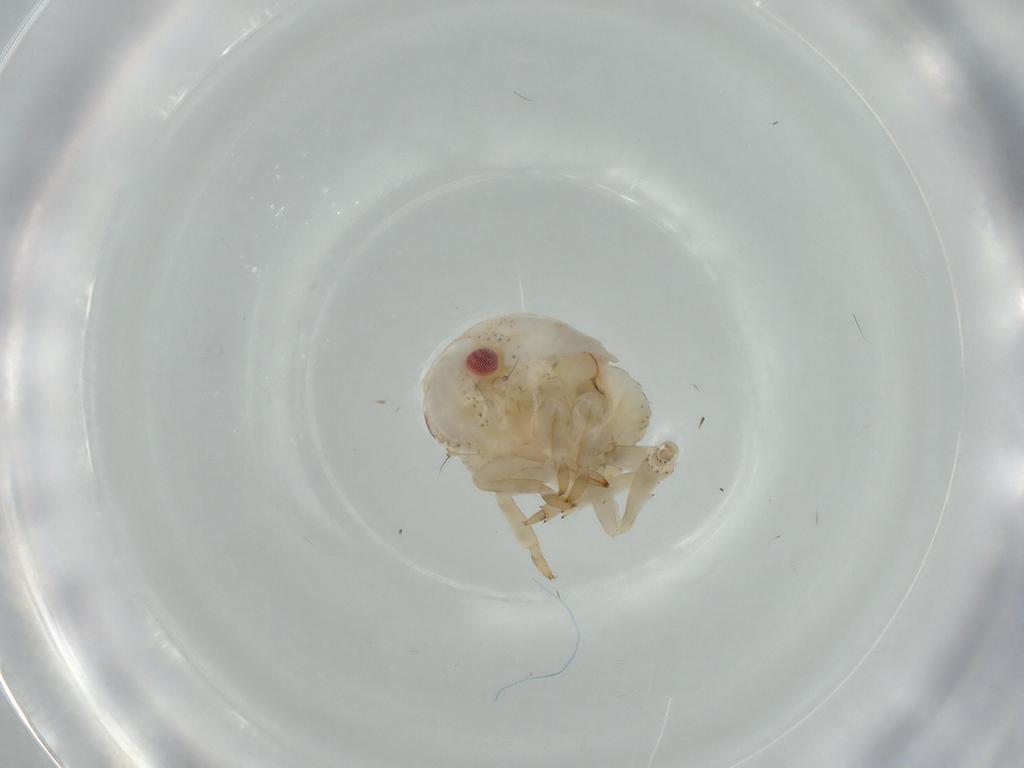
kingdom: Animalia
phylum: Arthropoda
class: Insecta
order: Hemiptera
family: Acanaloniidae
